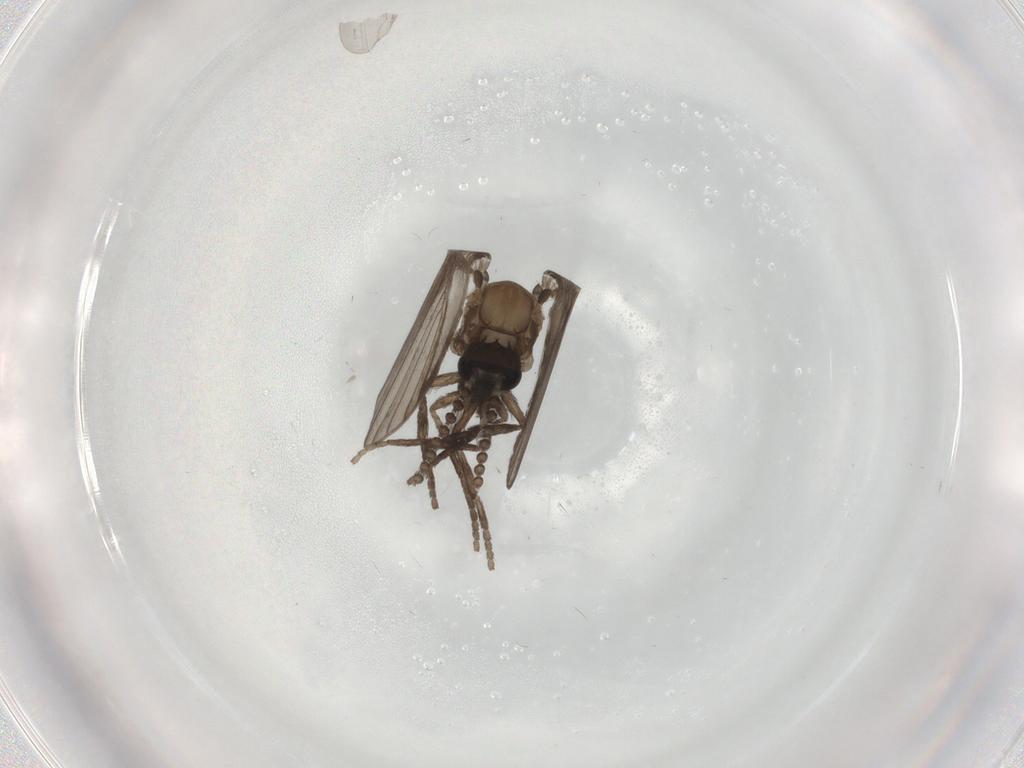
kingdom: Animalia
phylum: Arthropoda
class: Insecta
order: Diptera
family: Psychodidae
